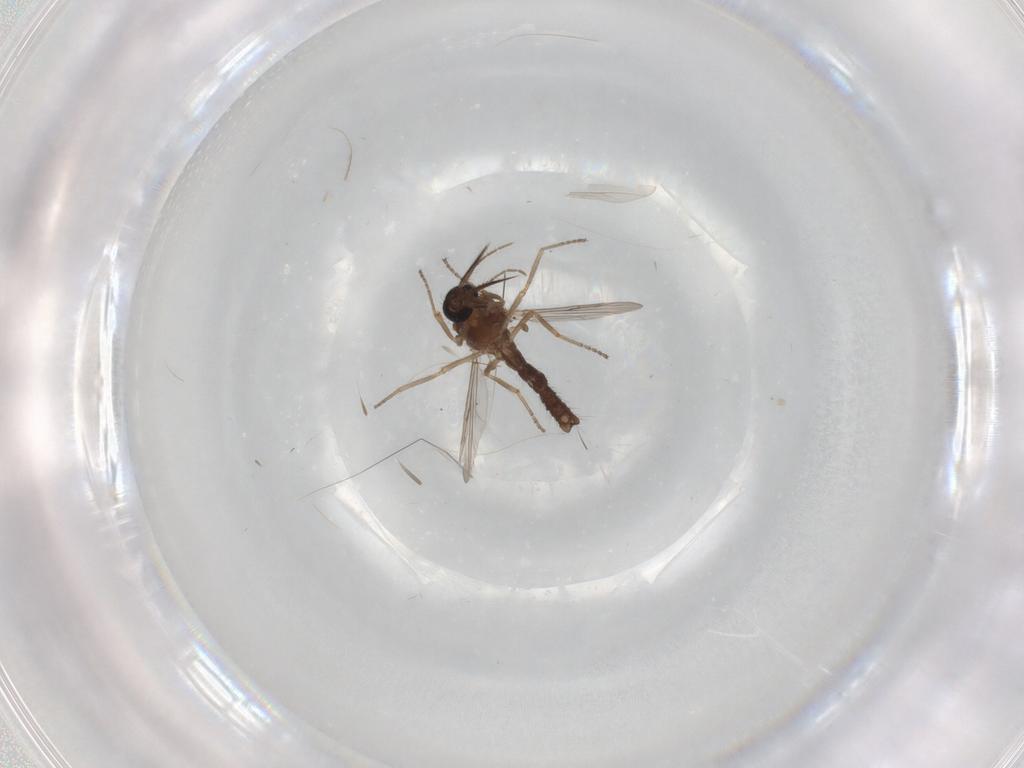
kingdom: Animalia
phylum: Arthropoda
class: Insecta
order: Diptera
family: Ceratopogonidae
